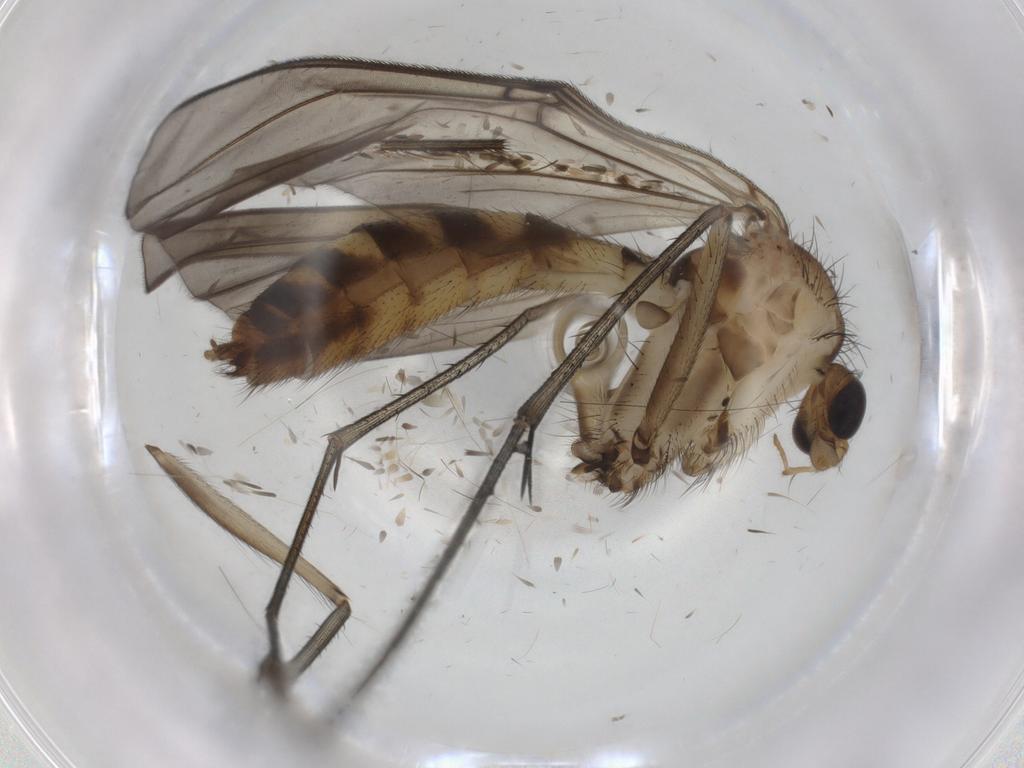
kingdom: Animalia
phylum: Arthropoda
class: Insecta
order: Diptera
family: Mycetophilidae
